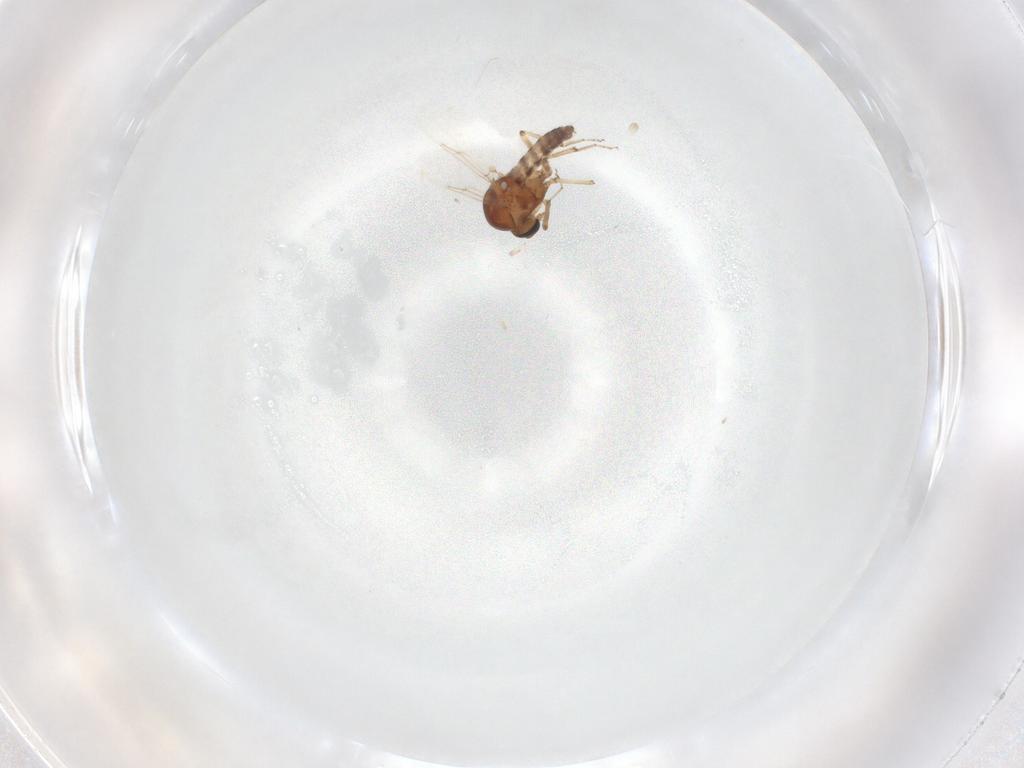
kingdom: Animalia
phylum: Arthropoda
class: Insecta
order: Diptera
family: Ceratopogonidae
